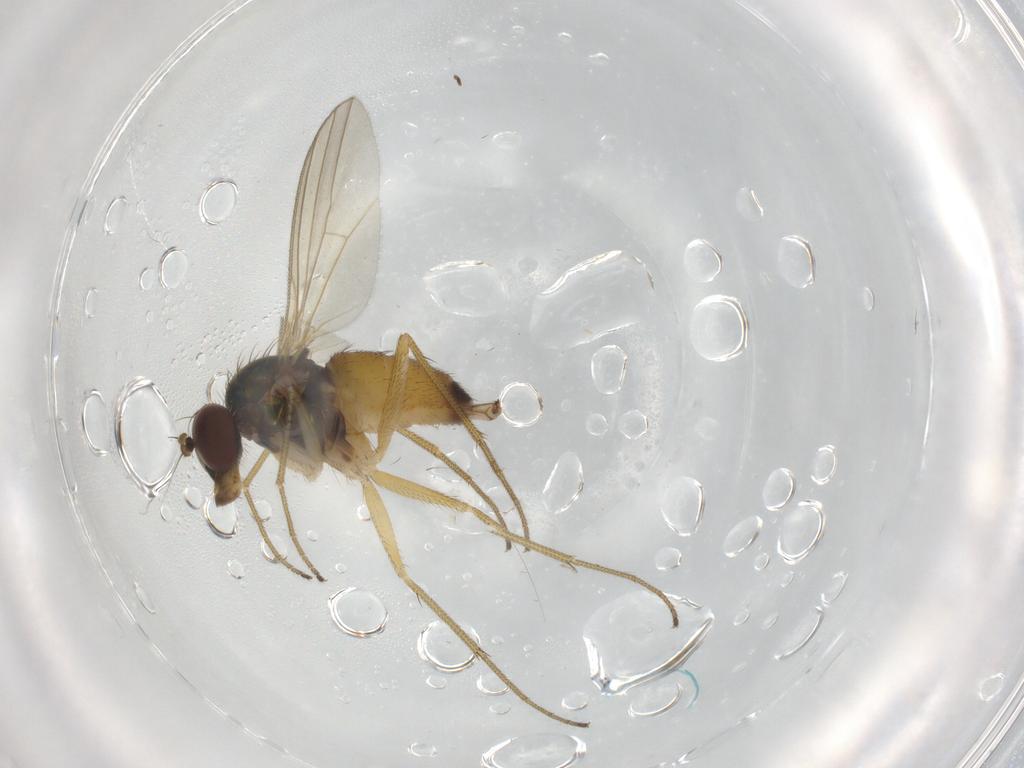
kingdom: Animalia
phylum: Arthropoda
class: Insecta
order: Diptera
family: Dolichopodidae
